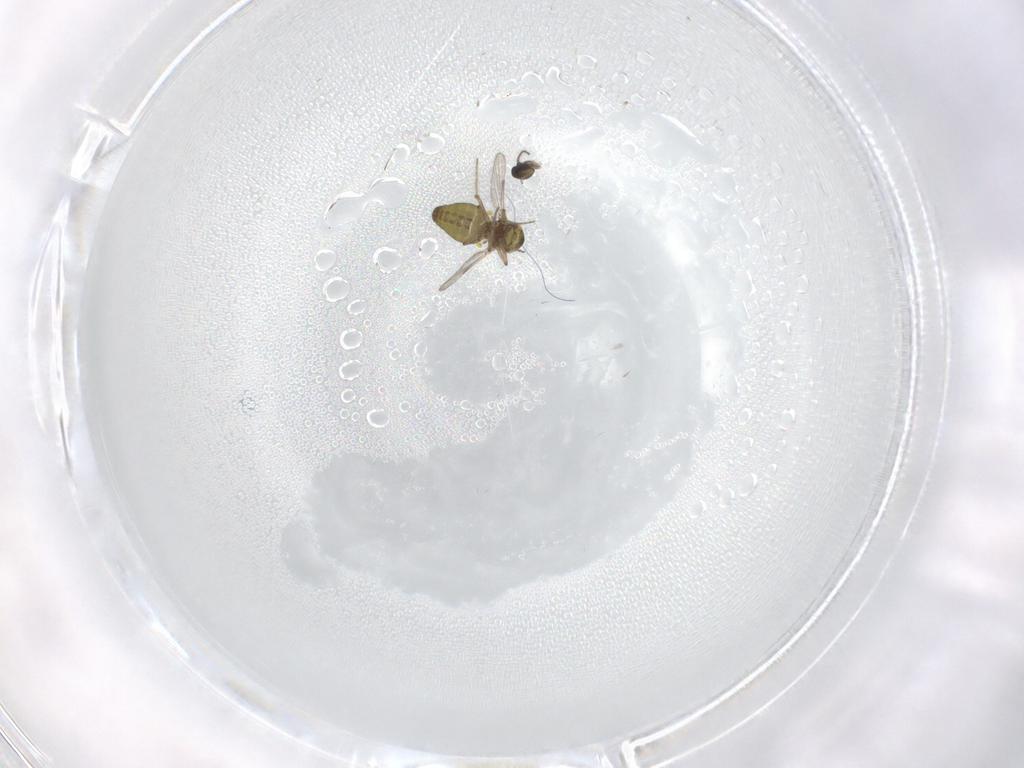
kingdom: Animalia
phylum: Arthropoda
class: Insecta
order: Diptera
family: Ceratopogonidae
